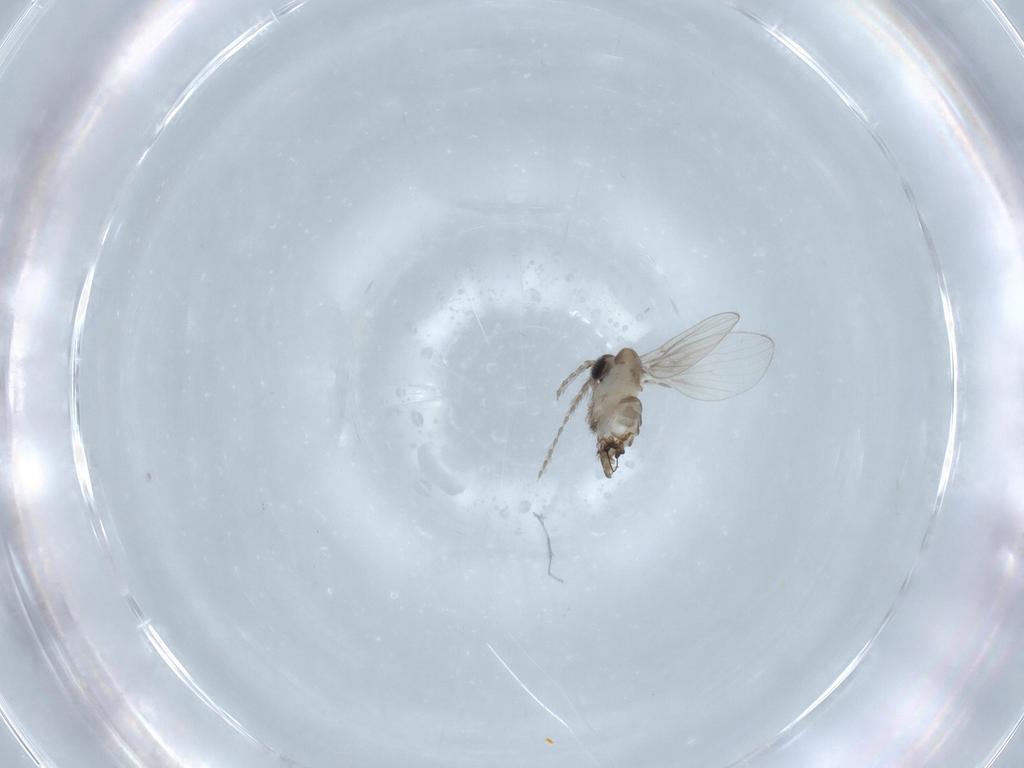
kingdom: Animalia
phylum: Arthropoda
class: Insecta
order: Diptera
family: Psychodidae
